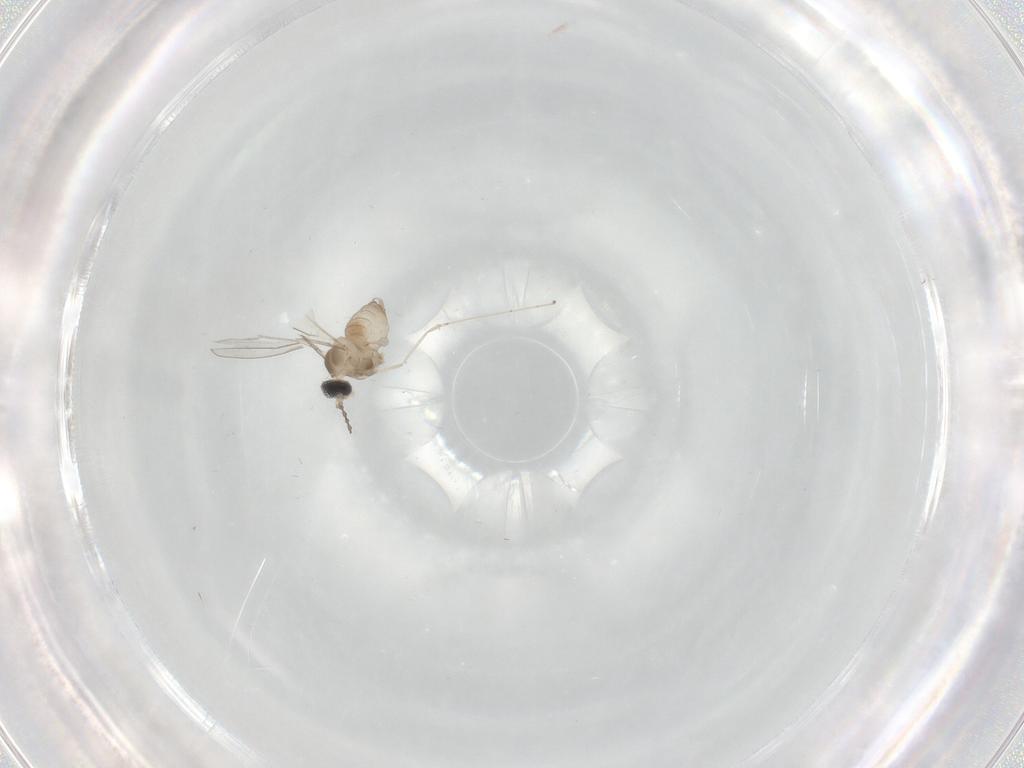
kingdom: Animalia
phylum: Arthropoda
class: Insecta
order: Diptera
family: Cecidomyiidae
